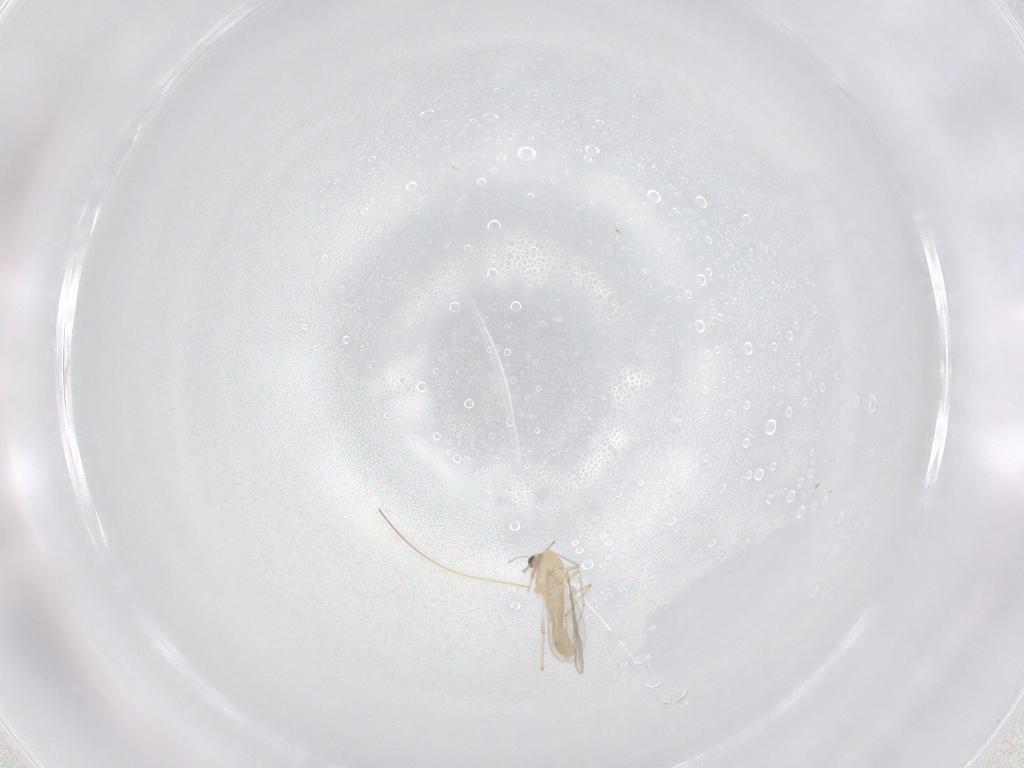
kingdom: Animalia
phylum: Arthropoda
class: Insecta
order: Diptera
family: Chironomidae
